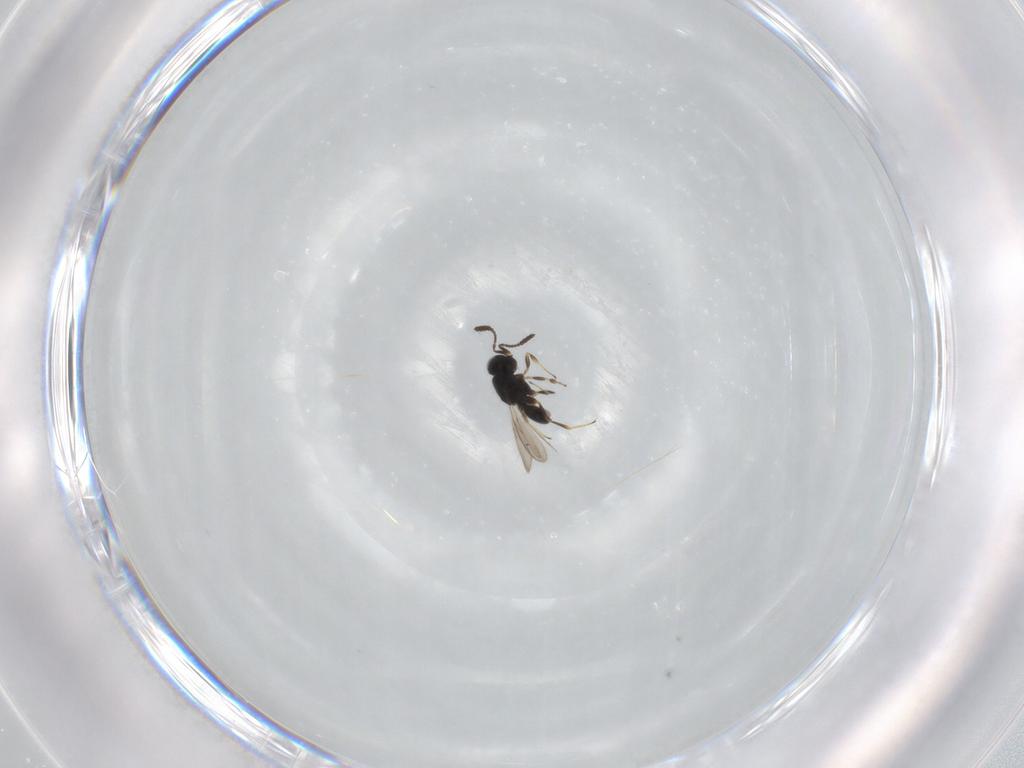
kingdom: Animalia
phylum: Arthropoda
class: Insecta
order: Hymenoptera
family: Scelionidae
